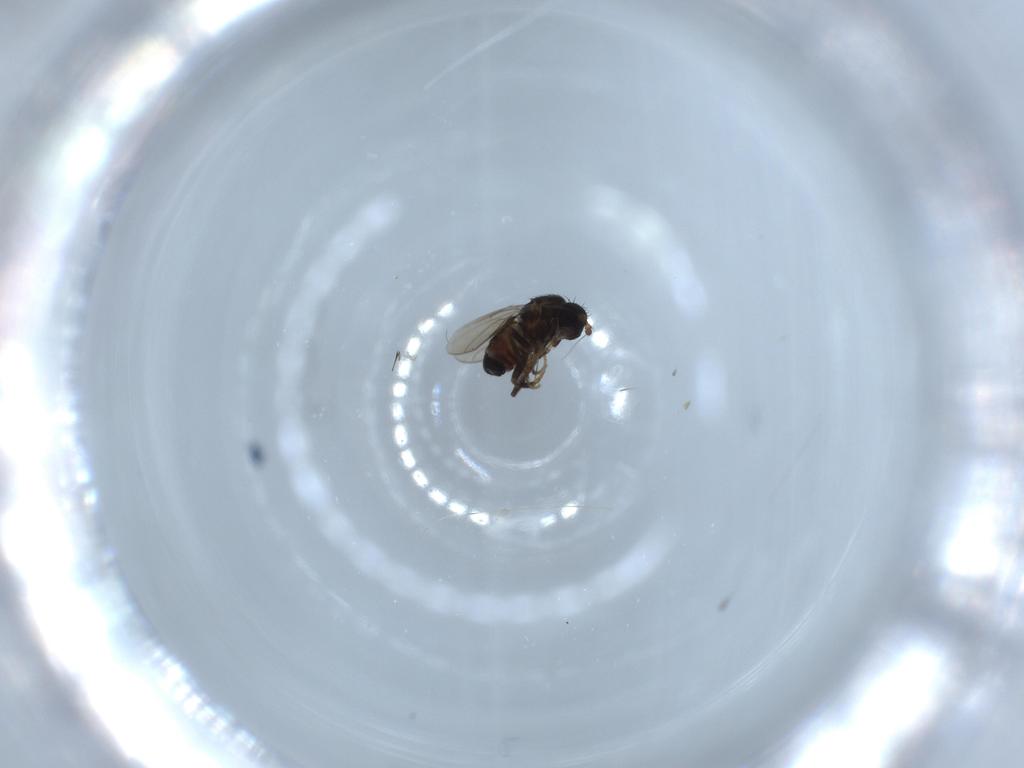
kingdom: Animalia
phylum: Arthropoda
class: Insecta
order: Diptera
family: Sphaeroceridae
